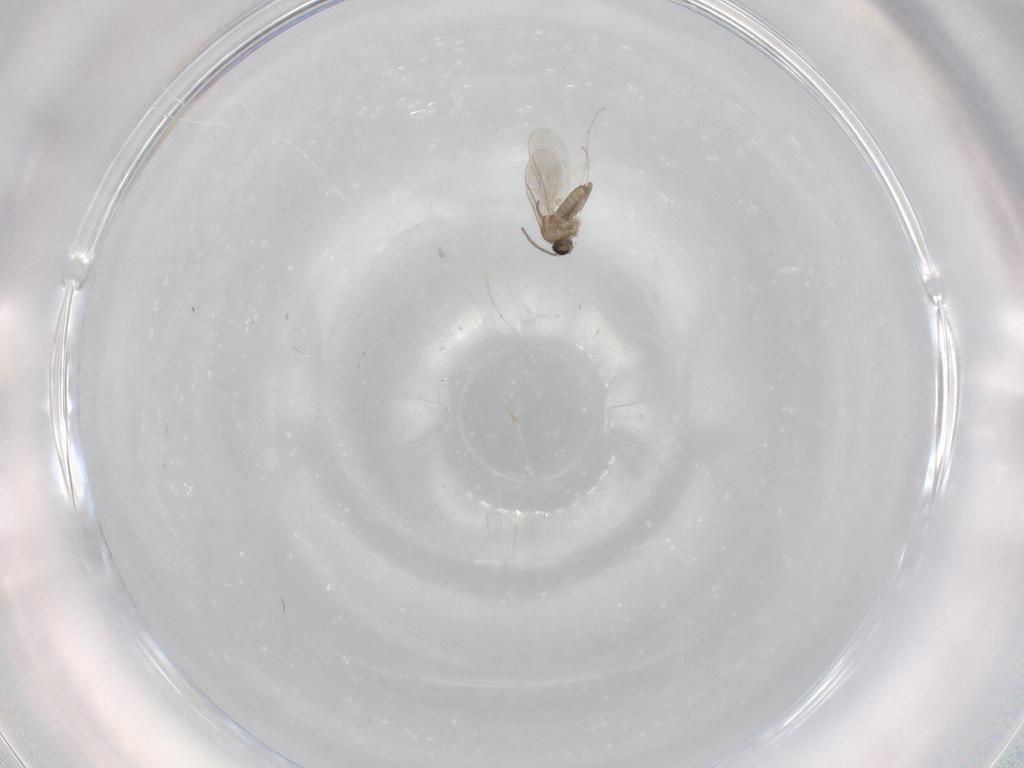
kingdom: Animalia
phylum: Arthropoda
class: Insecta
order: Diptera
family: Cecidomyiidae
